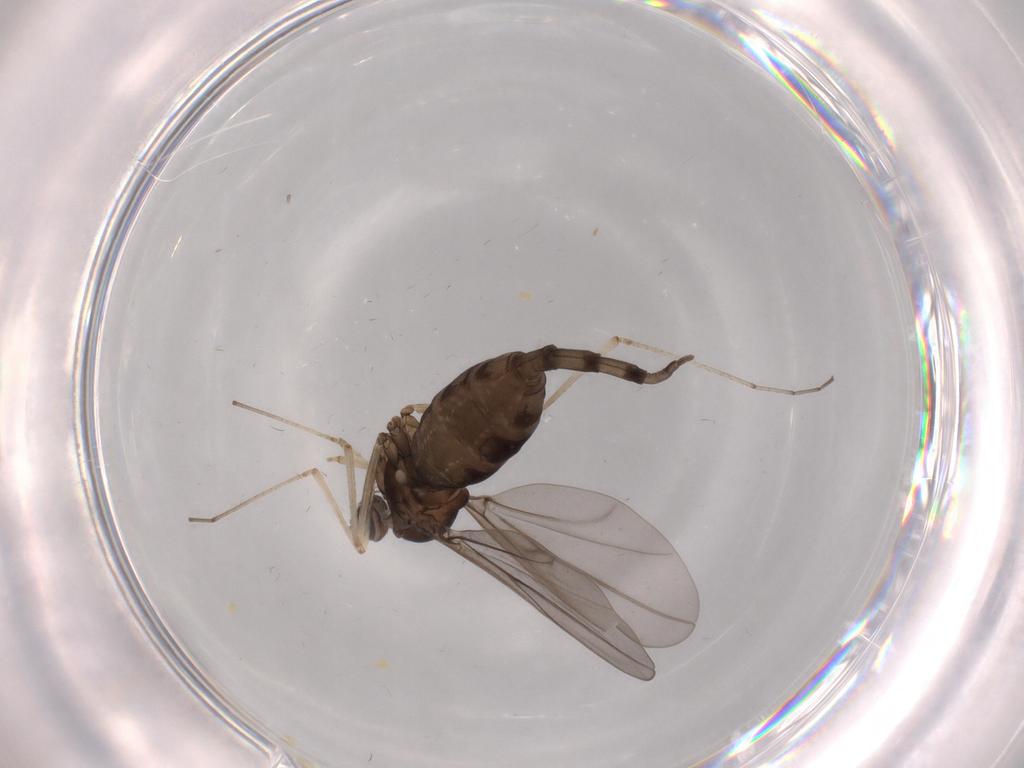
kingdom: Animalia
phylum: Arthropoda
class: Insecta
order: Diptera
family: Cecidomyiidae
